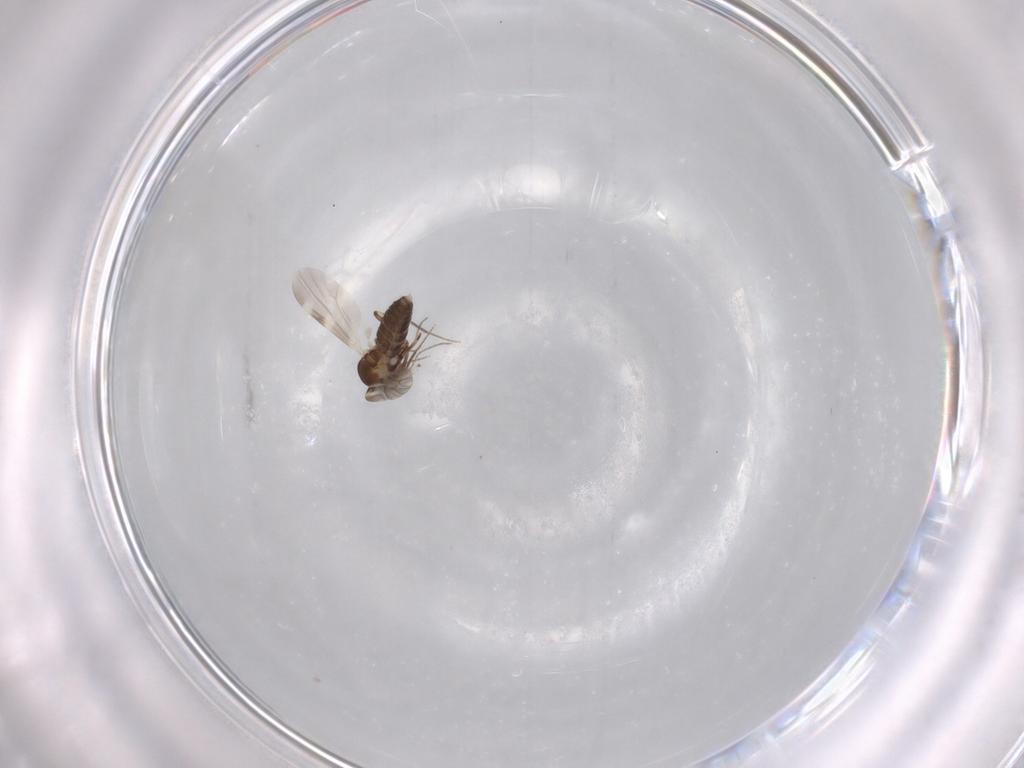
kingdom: Animalia
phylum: Arthropoda
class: Insecta
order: Diptera
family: Ceratopogonidae
